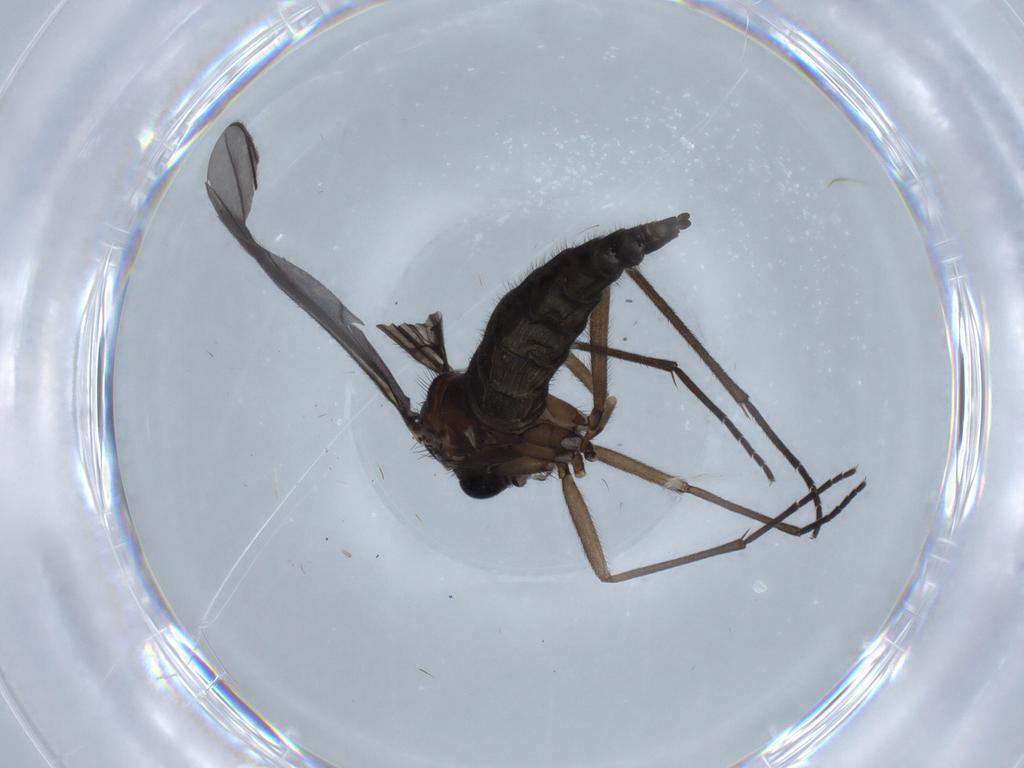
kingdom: Animalia
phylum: Arthropoda
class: Insecta
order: Diptera
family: Sciaridae
